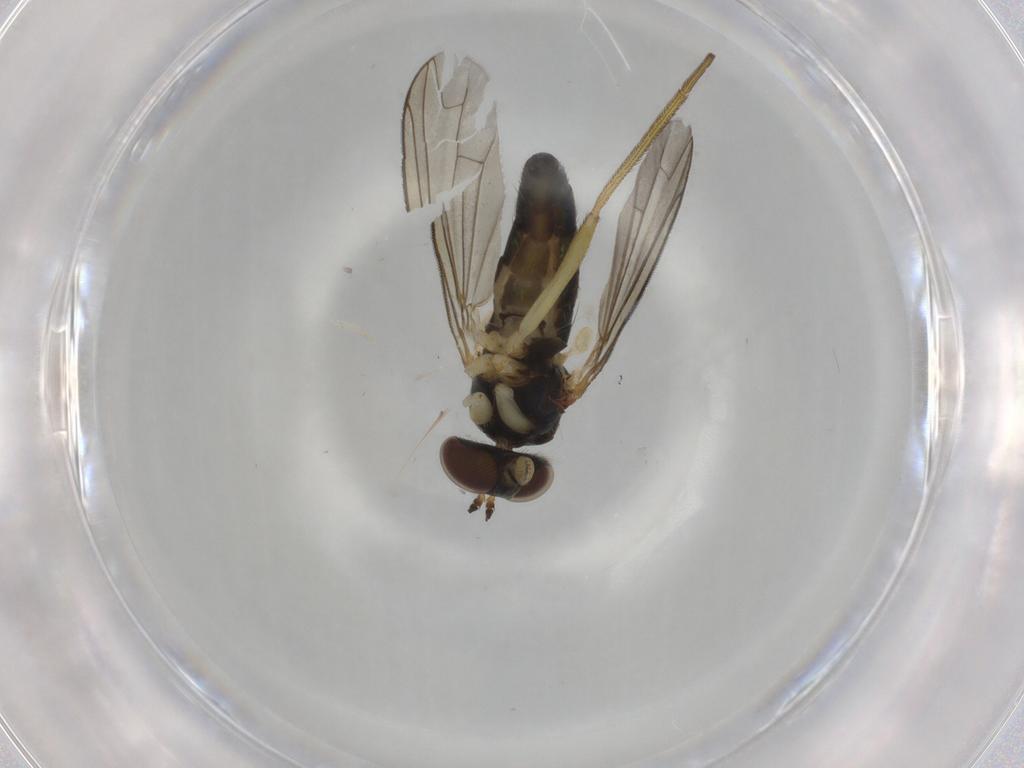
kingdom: Animalia
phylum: Arthropoda
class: Insecta
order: Diptera
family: Dolichopodidae
